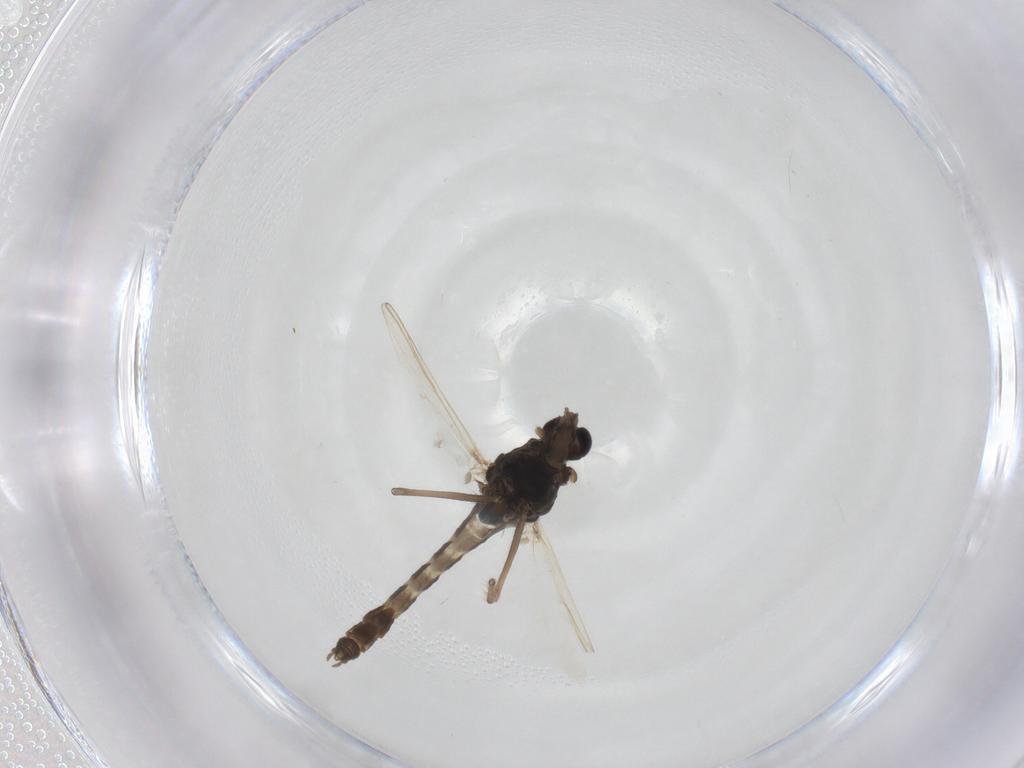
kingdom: Animalia
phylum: Arthropoda
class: Insecta
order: Diptera
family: Chironomidae
